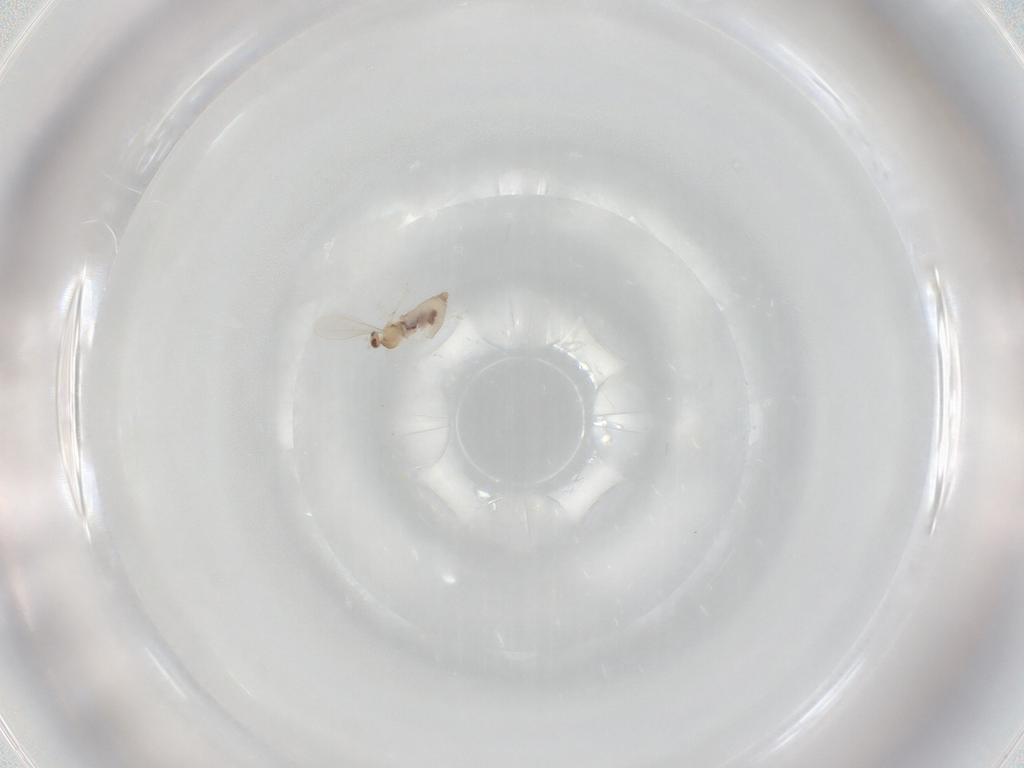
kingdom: Animalia
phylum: Arthropoda
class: Insecta
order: Diptera
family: Cecidomyiidae
